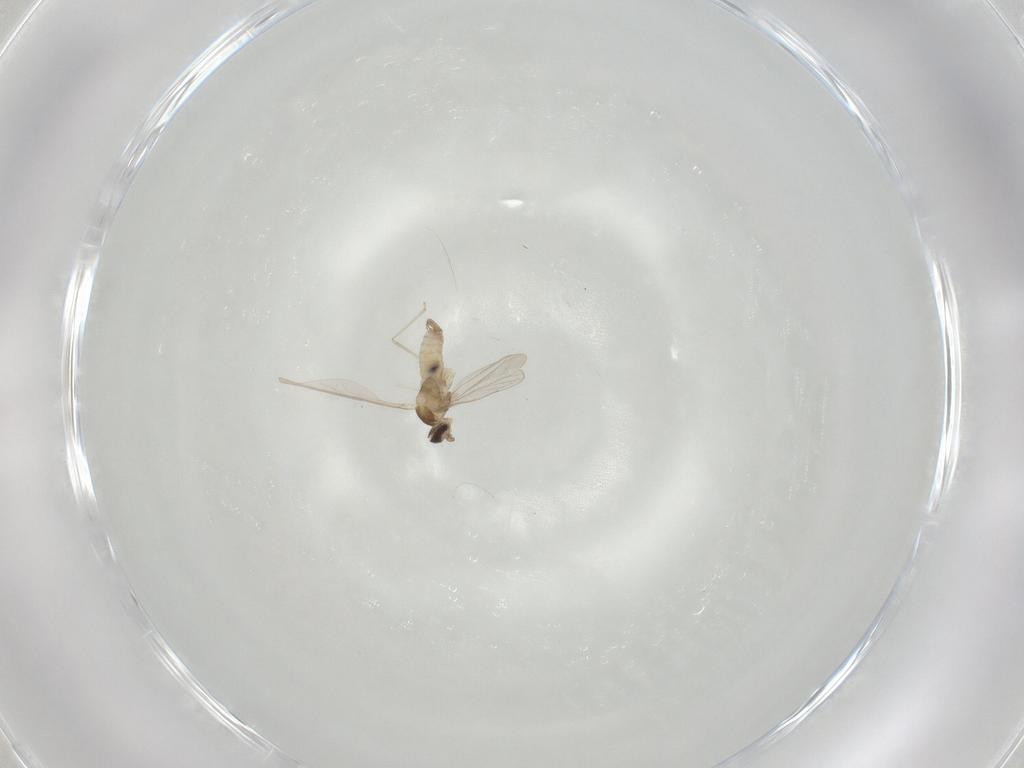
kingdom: Animalia
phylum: Arthropoda
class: Insecta
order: Diptera
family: Cecidomyiidae
